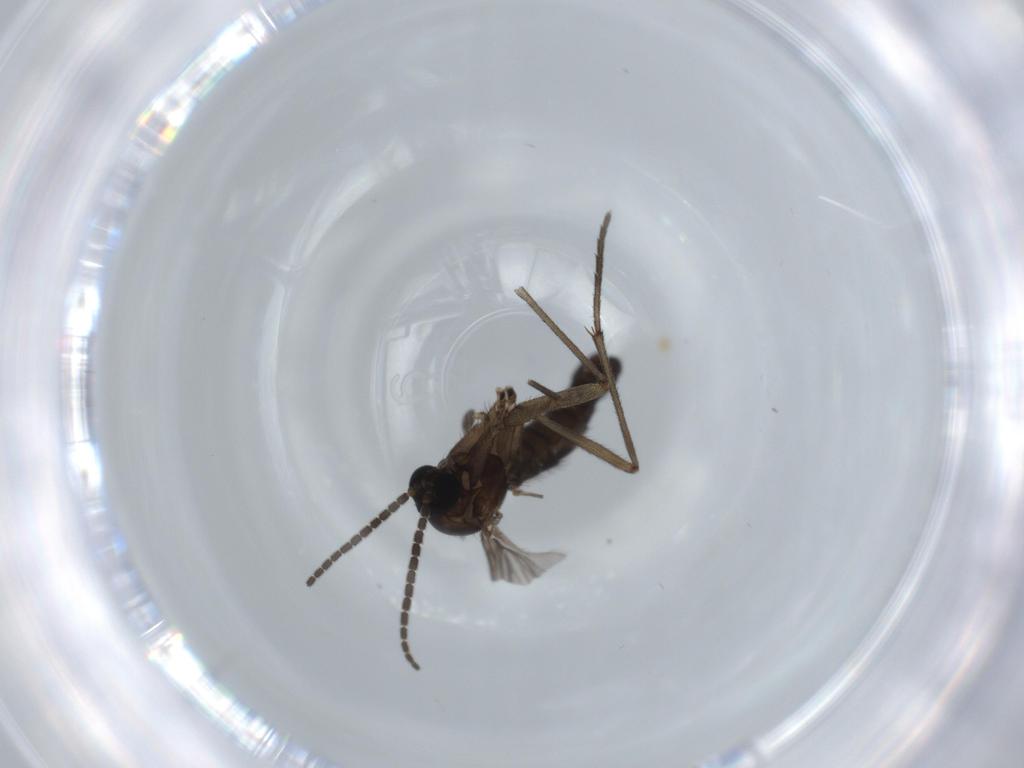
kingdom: Animalia
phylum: Arthropoda
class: Insecta
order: Diptera
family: Sciaridae
